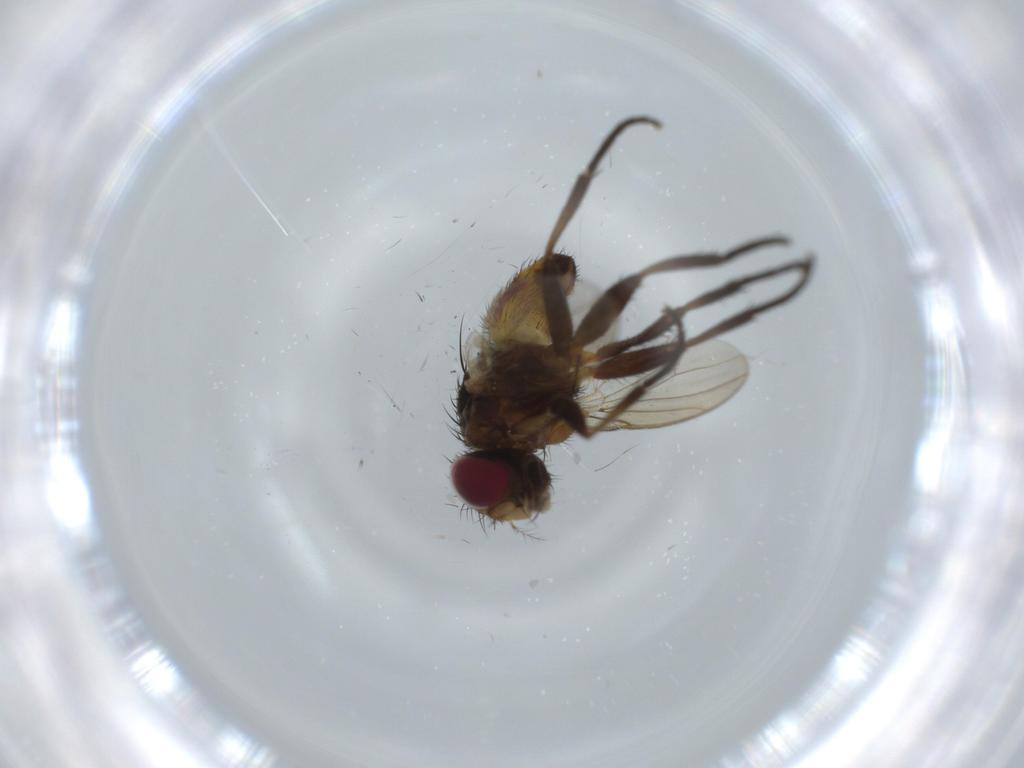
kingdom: Animalia
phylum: Arthropoda
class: Insecta
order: Diptera
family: Anthomyiidae
